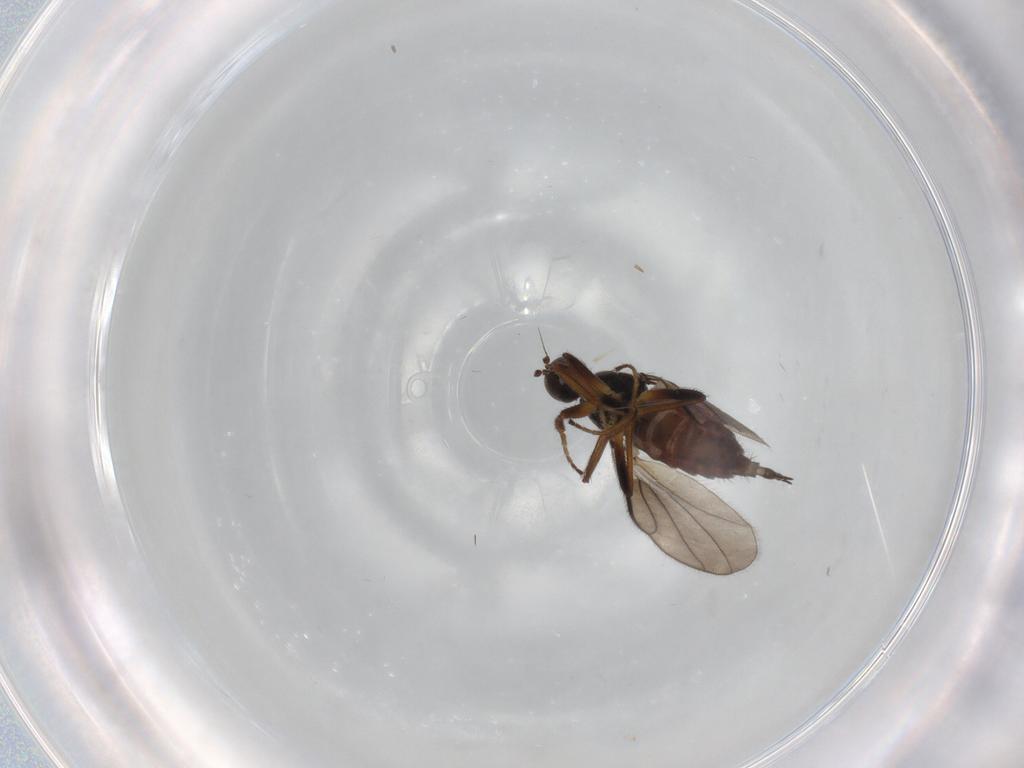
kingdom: Animalia
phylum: Arthropoda
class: Insecta
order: Diptera
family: Hybotidae
